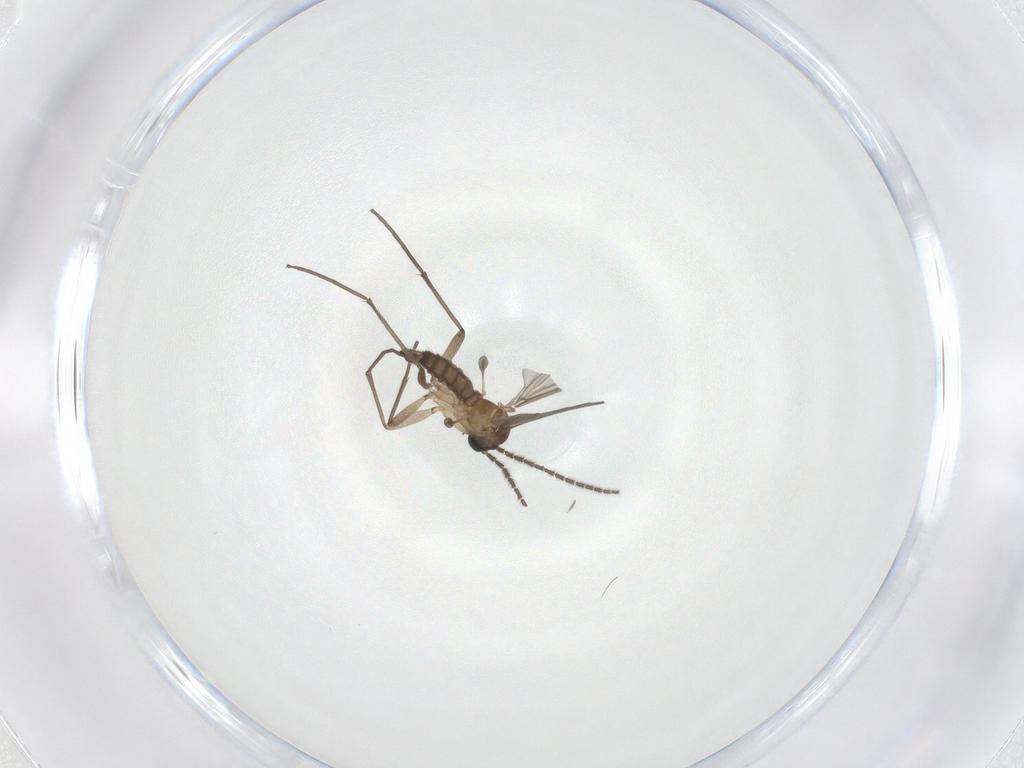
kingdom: Animalia
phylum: Arthropoda
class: Insecta
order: Diptera
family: Sciaridae
